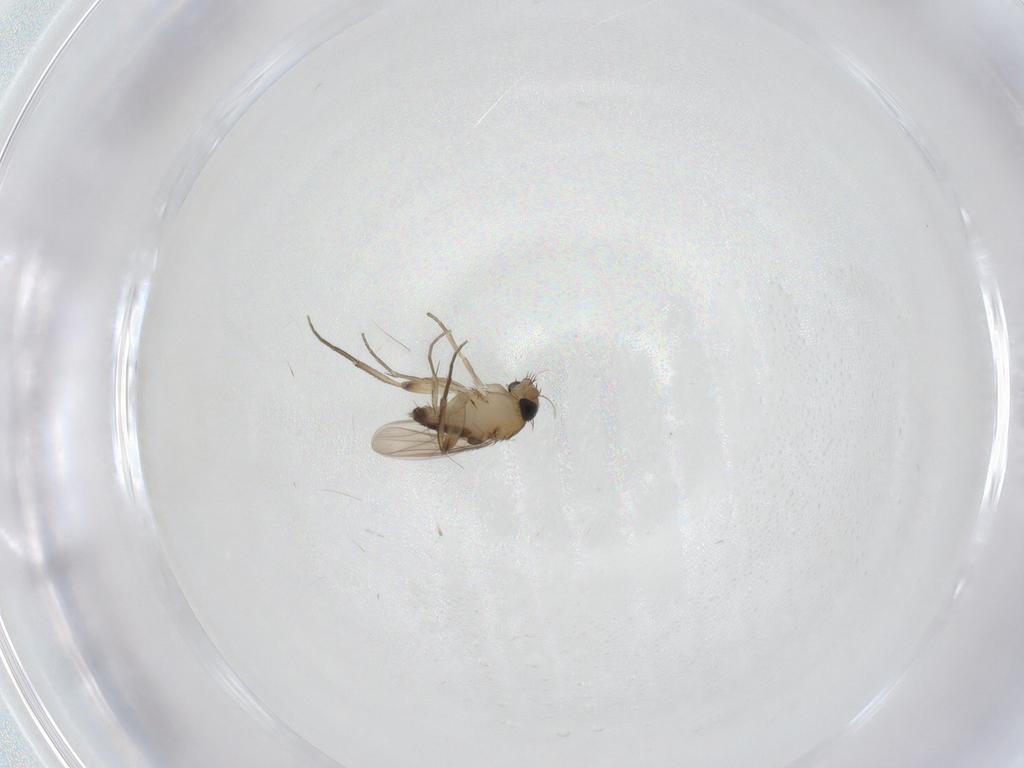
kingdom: Animalia
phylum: Arthropoda
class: Insecta
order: Diptera
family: Phoridae
